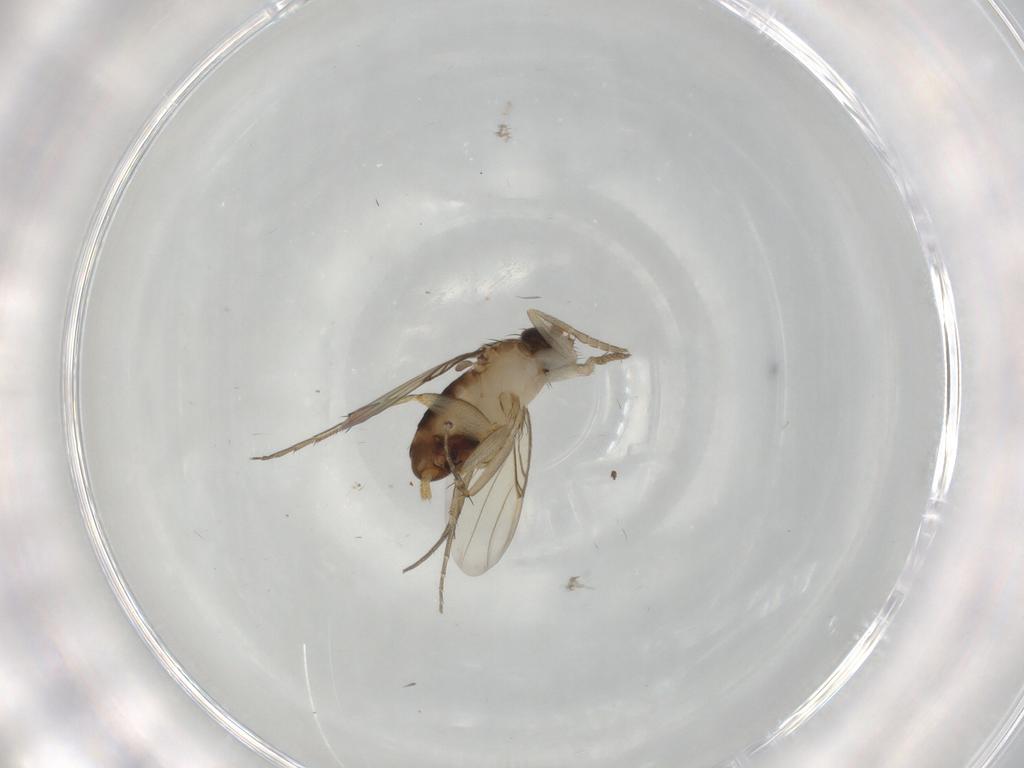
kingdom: Animalia
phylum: Arthropoda
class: Insecta
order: Diptera
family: Phoridae
